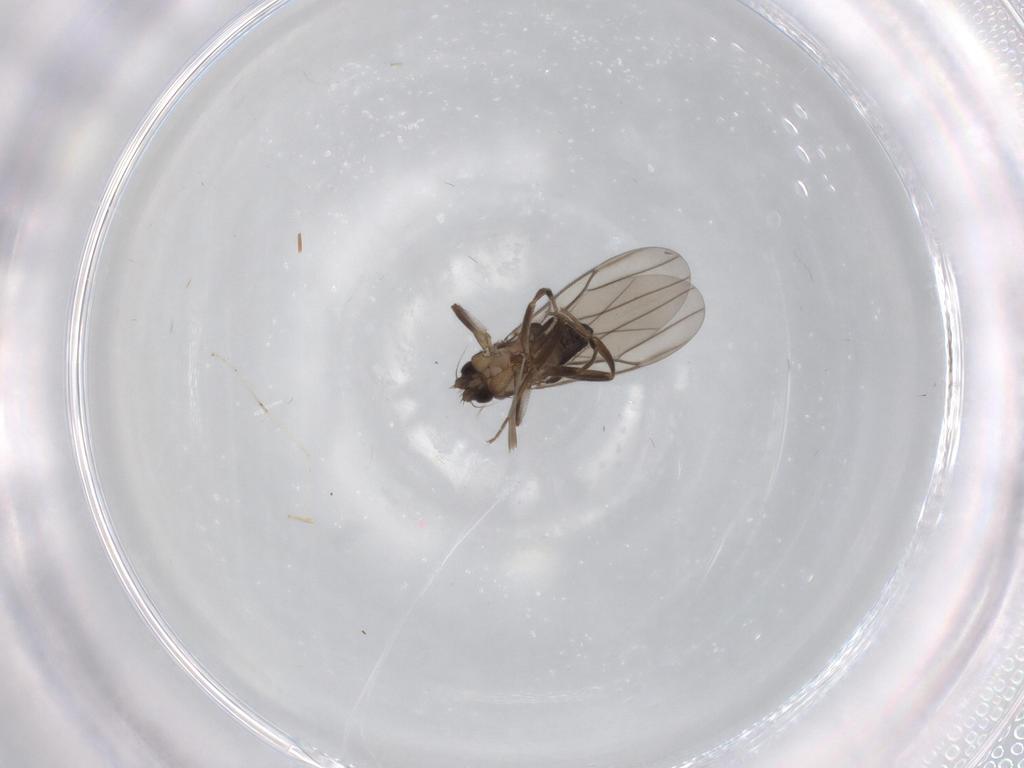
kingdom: Animalia
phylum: Arthropoda
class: Insecta
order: Diptera
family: Cecidomyiidae
